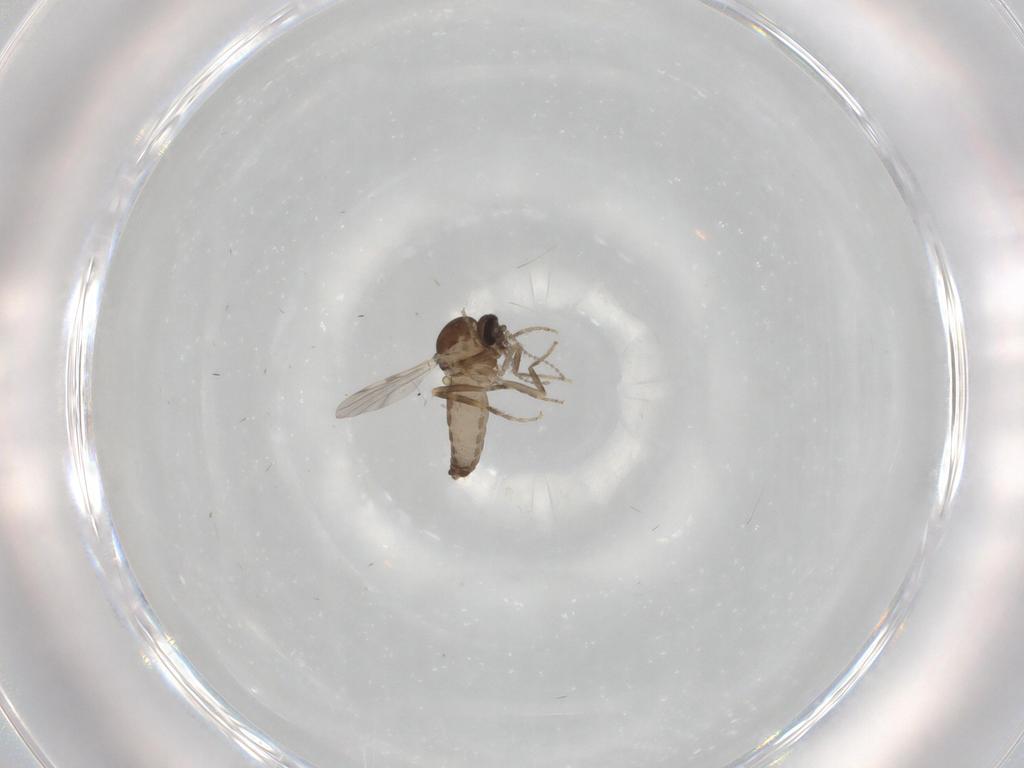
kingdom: Animalia
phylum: Arthropoda
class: Insecta
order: Diptera
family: Ceratopogonidae
